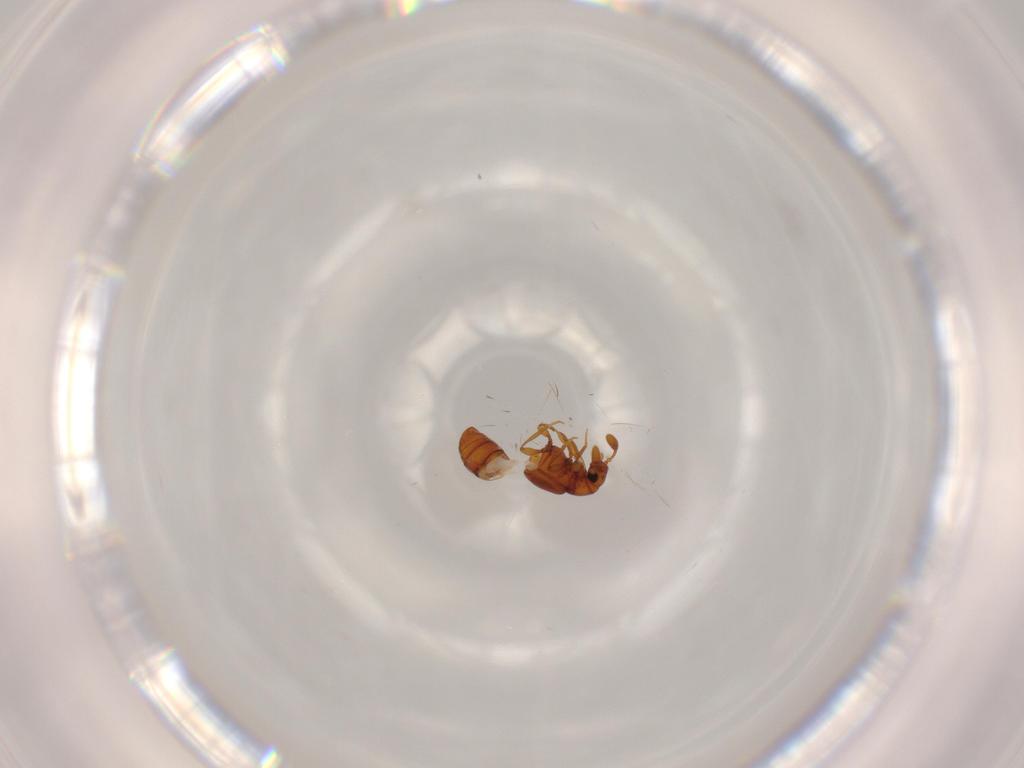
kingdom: Animalia
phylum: Arthropoda
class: Insecta
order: Coleoptera
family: Staphylinidae
